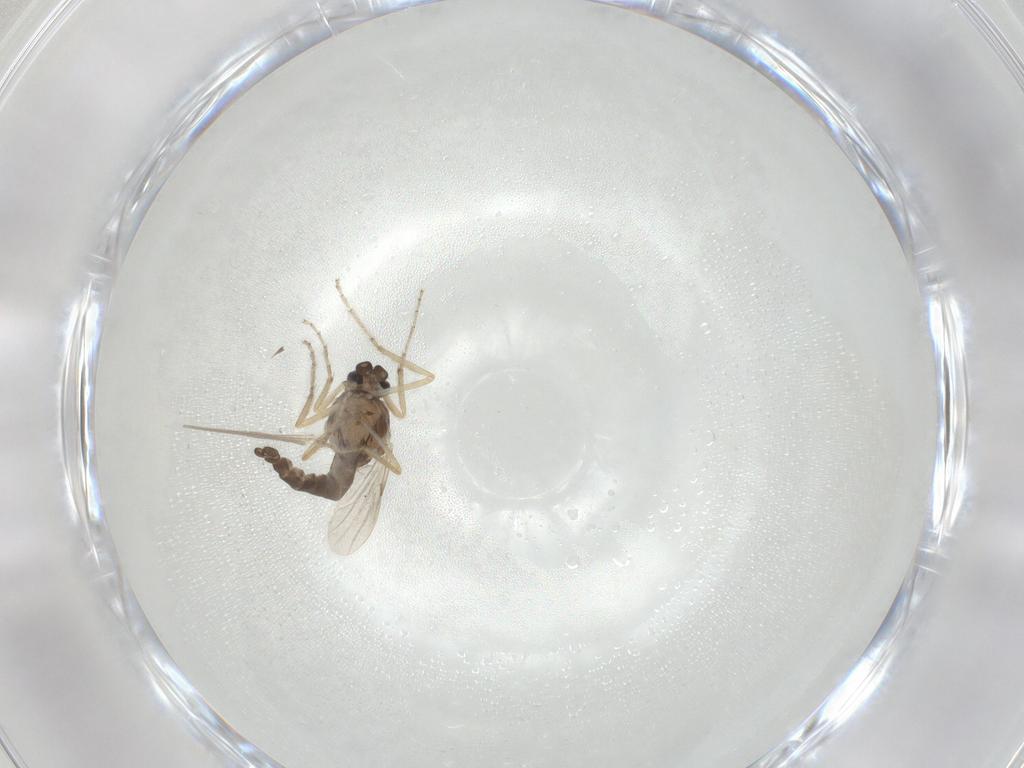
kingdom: Animalia
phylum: Arthropoda
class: Insecta
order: Diptera
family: Ceratopogonidae
